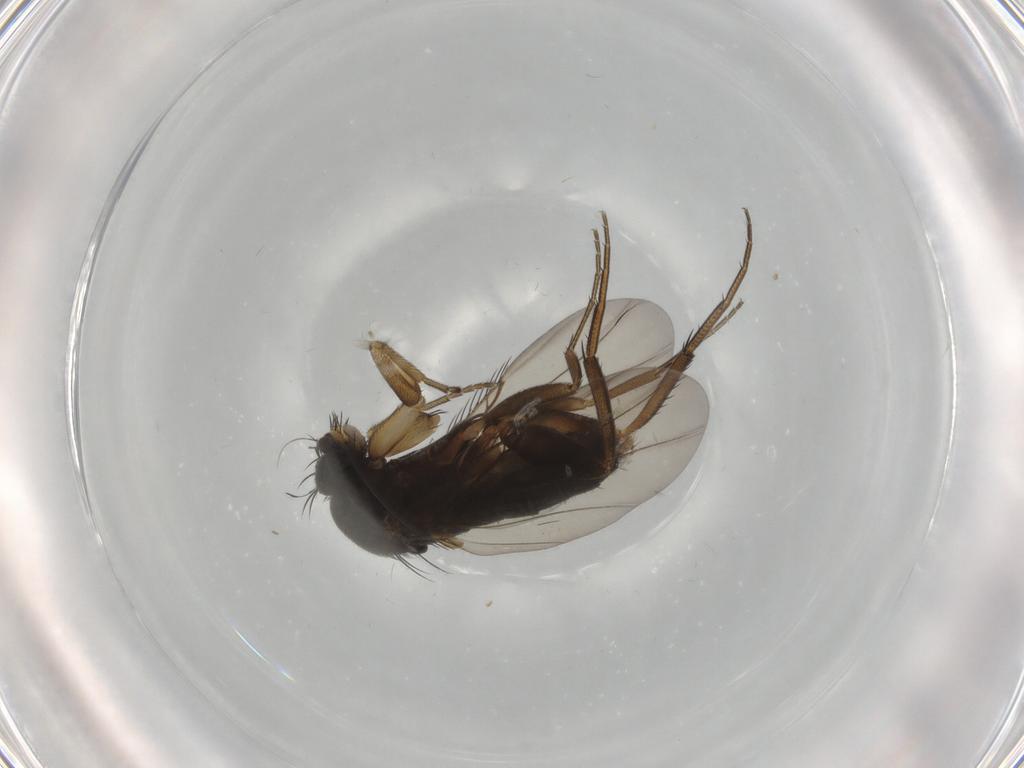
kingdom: Animalia
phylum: Arthropoda
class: Insecta
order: Diptera
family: Phoridae
